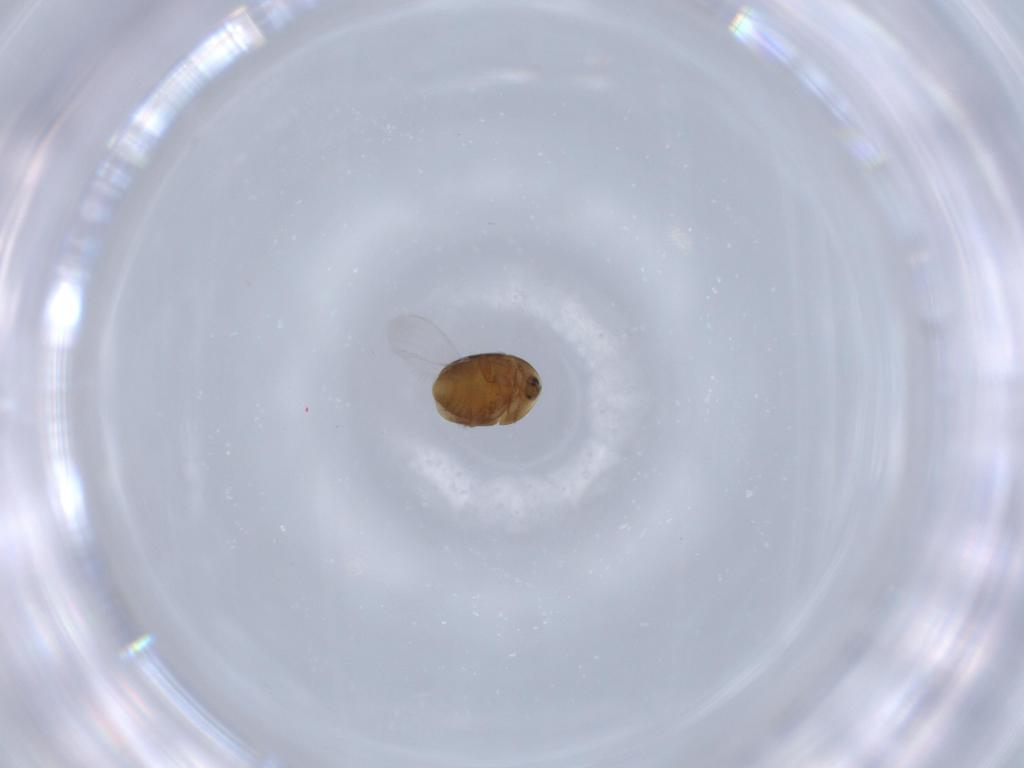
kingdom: Animalia
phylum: Arthropoda
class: Insecta
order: Coleoptera
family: Corylophidae
